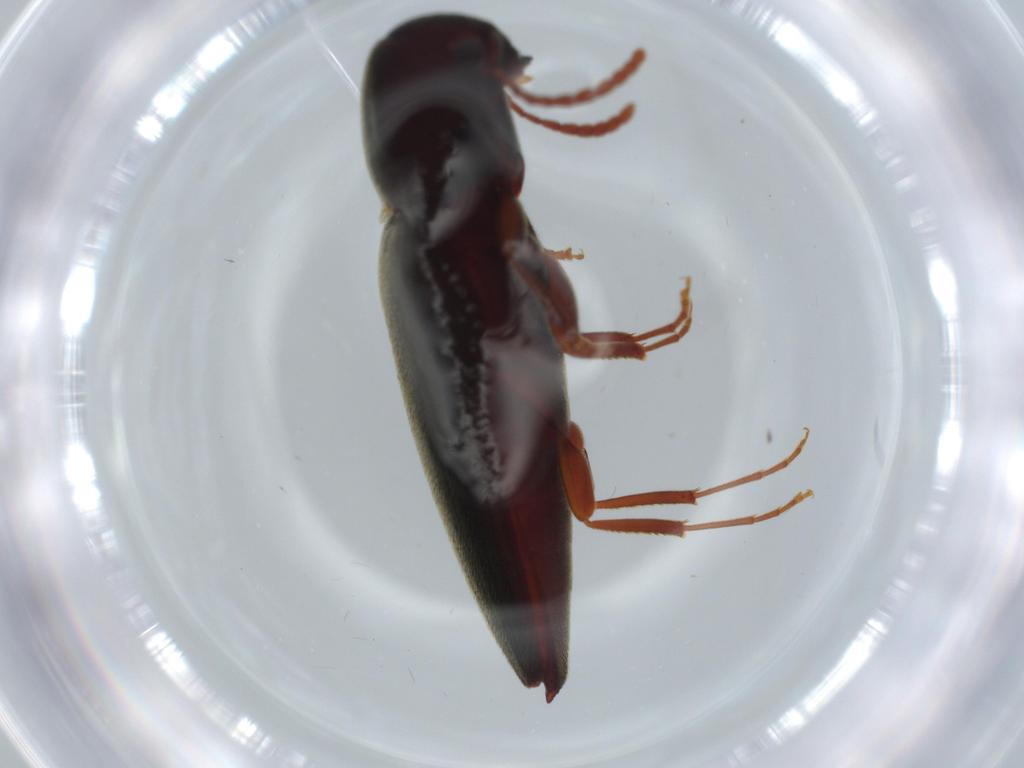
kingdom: Animalia
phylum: Arthropoda
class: Insecta
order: Coleoptera
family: Eucnemidae
